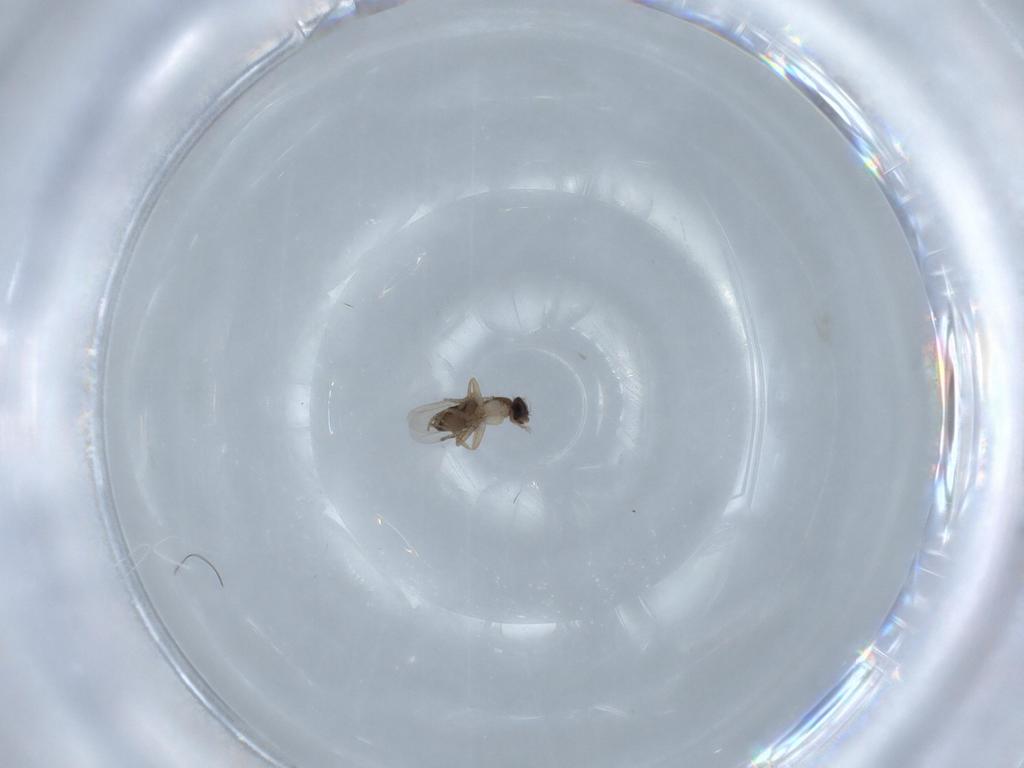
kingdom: Animalia
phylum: Arthropoda
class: Insecta
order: Diptera
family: Phoridae
